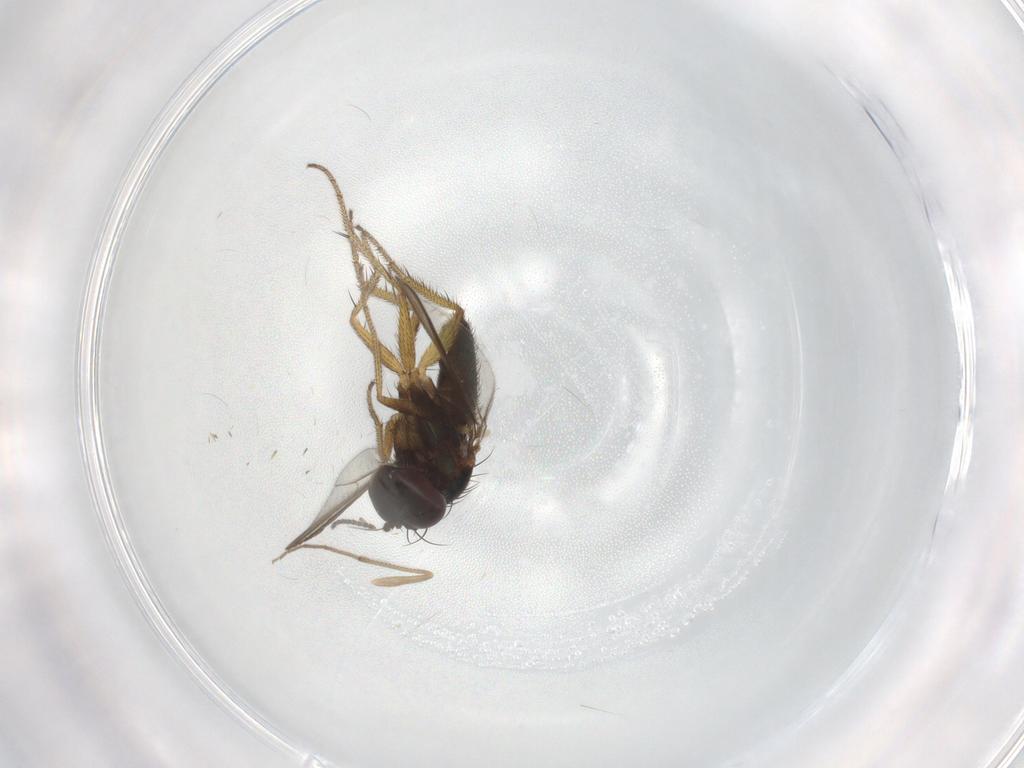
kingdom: Animalia
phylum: Arthropoda
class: Insecta
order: Diptera
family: Sciaridae
